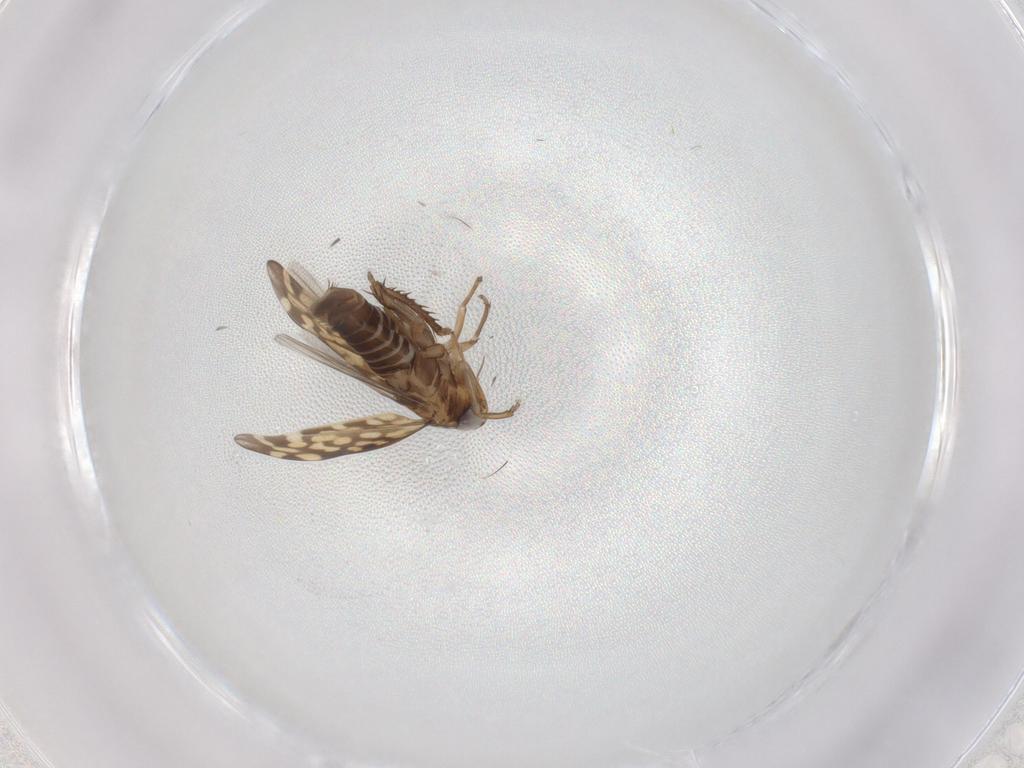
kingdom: Animalia
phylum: Arthropoda
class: Insecta
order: Hemiptera
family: Cicadellidae
